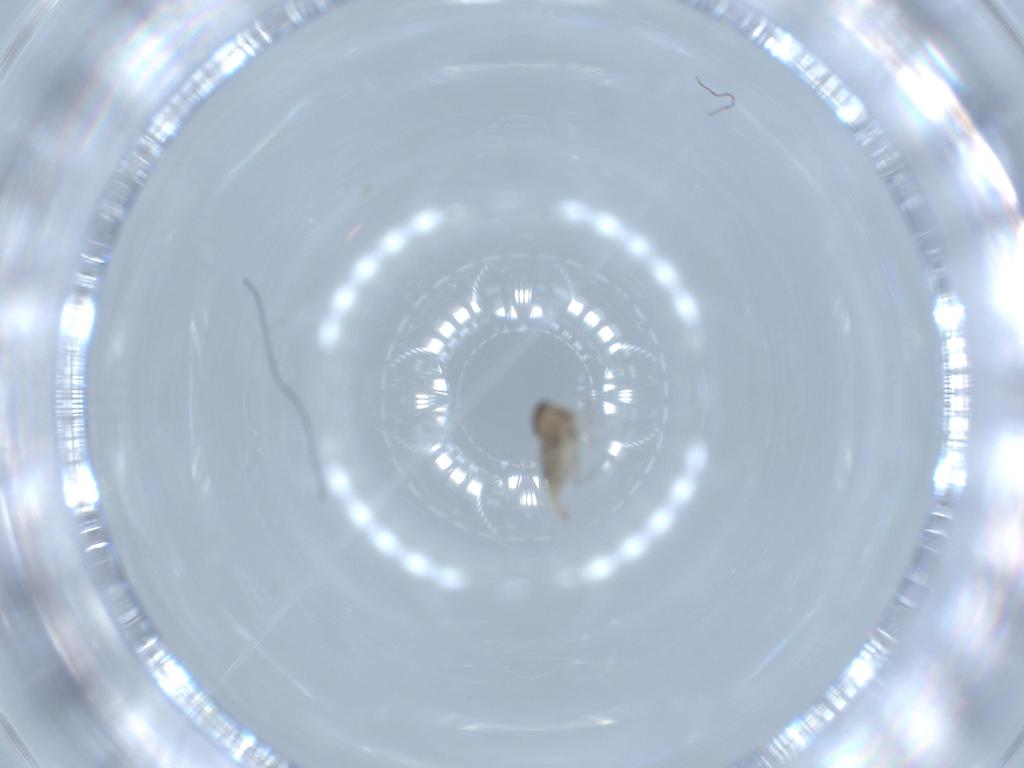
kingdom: Animalia
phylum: Arthropoda
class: Insecta
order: Diptera
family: Cecidomyiidae
